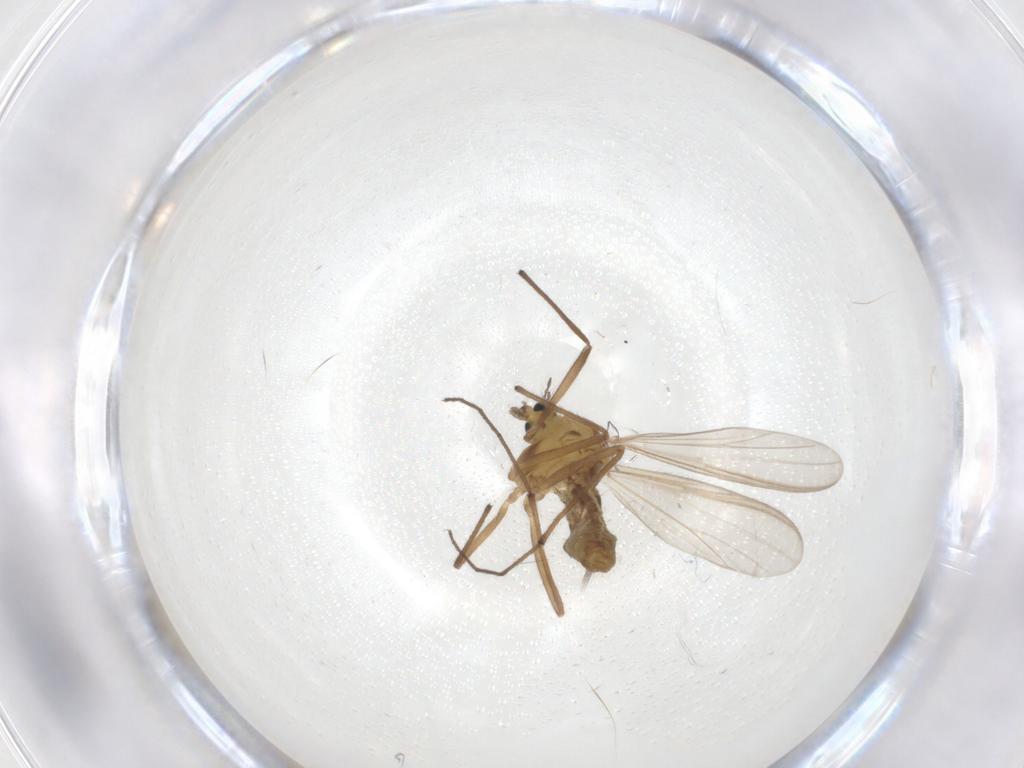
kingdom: Animalia
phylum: Arthropoda
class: Insecta
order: Diptera
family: Chironomidae
